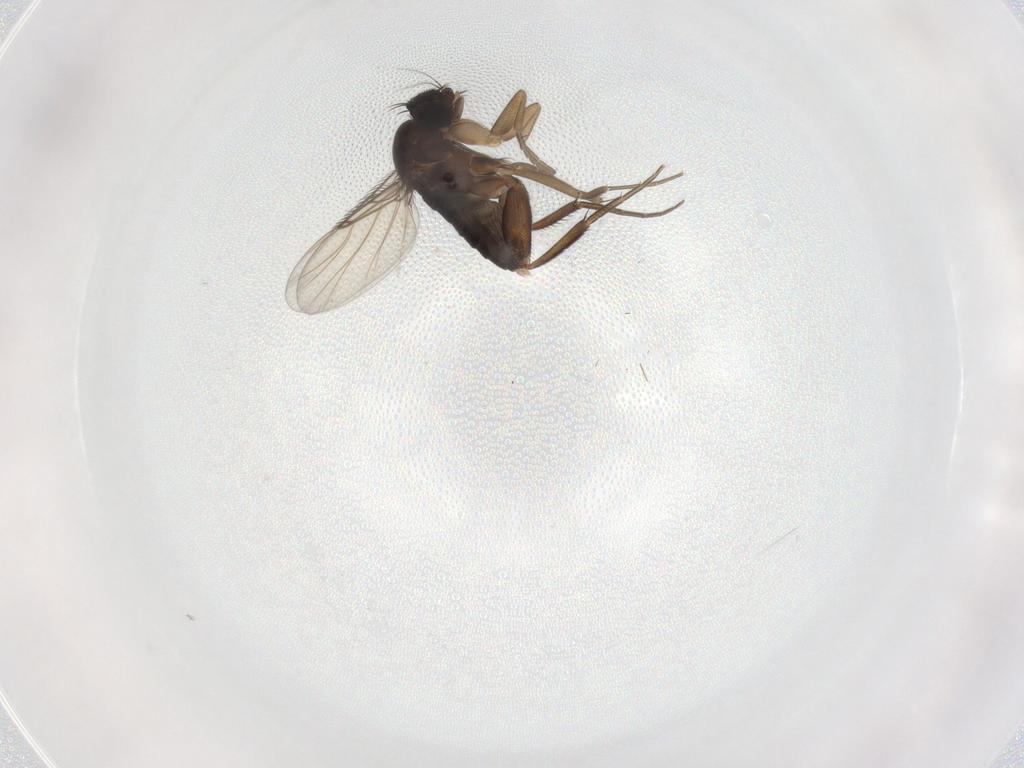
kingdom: Animalia
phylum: Arthropoda
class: Insecta
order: Diptera
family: Phoridae
